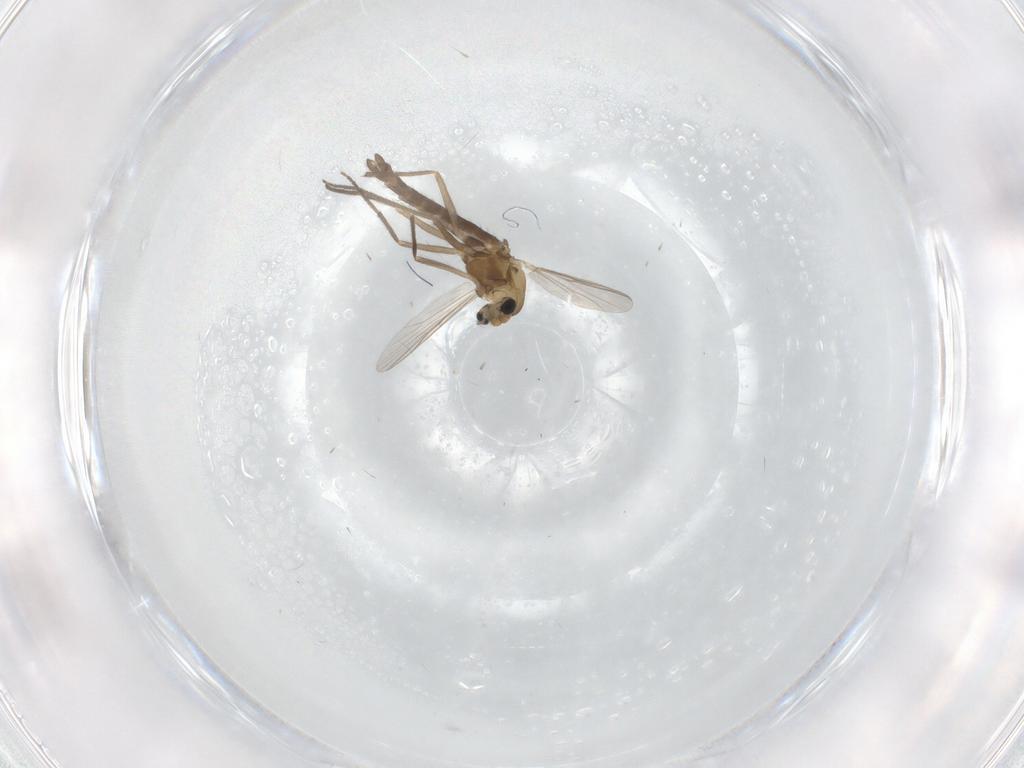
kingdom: Animalia
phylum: Arthropoda
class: Insecta
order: Diptera
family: Chironomidae
